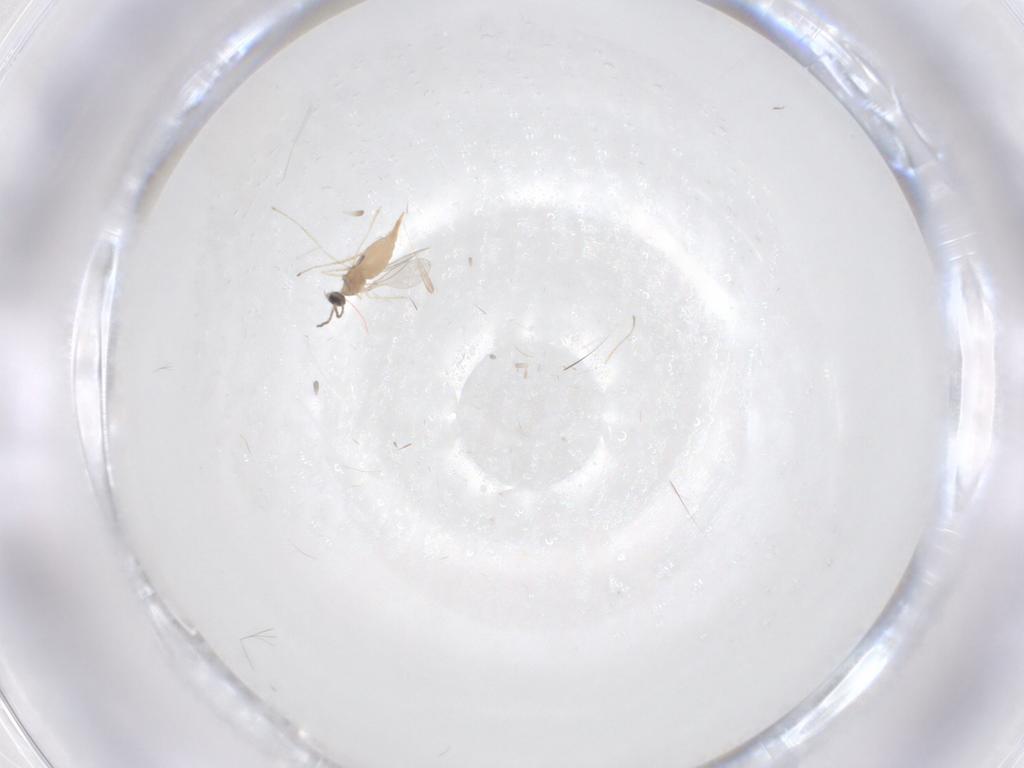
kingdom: Animalia
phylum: Arthropoda
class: Insecta
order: Diptera
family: Cecidomyiidae
